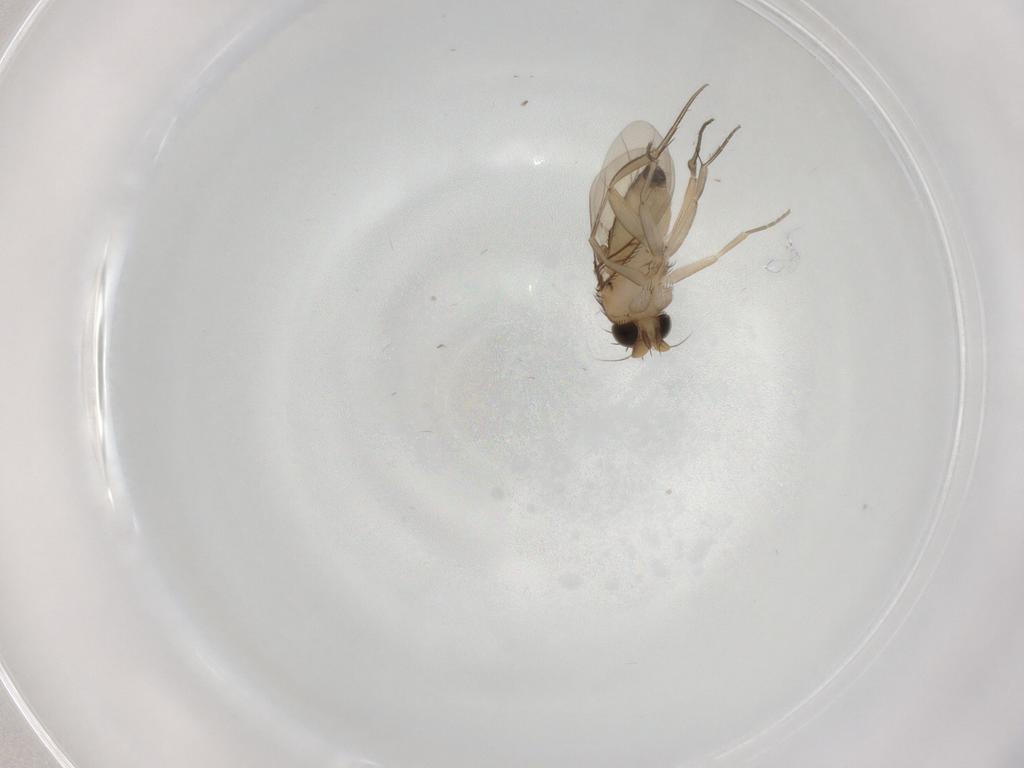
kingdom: Animalia
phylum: Arthropoda
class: Insecta
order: Diptera
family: Phoridae
